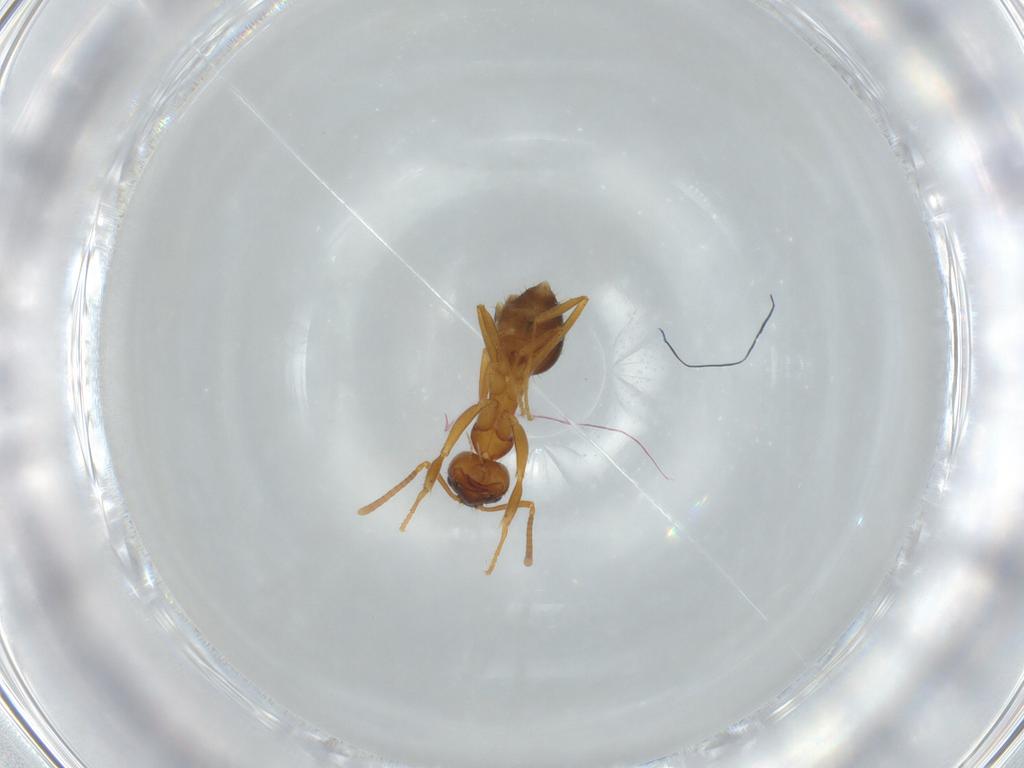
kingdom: Animalia
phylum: Arthropoda
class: Insecta
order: Hymenoptera
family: Formicidae
